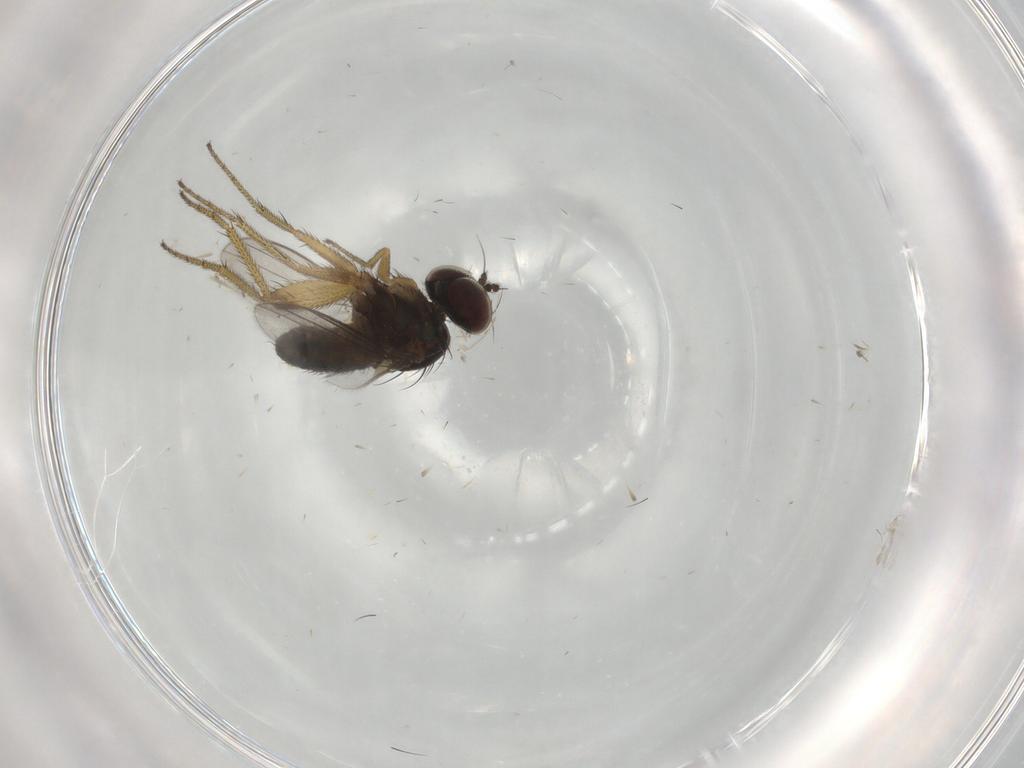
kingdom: Animalia
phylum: Arthropoda
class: Insecta
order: Diptera
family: Dolichopodidae
